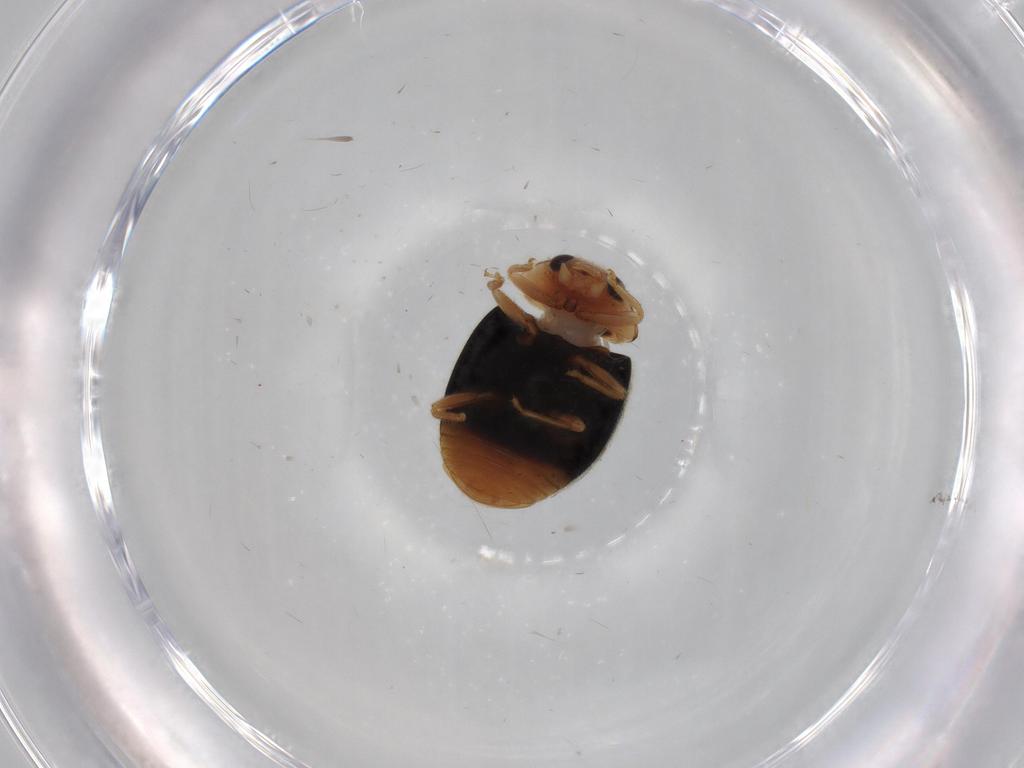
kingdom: Animalia
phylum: Arthropoda
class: Insecta
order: Coleoptera
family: Coccinellidae
